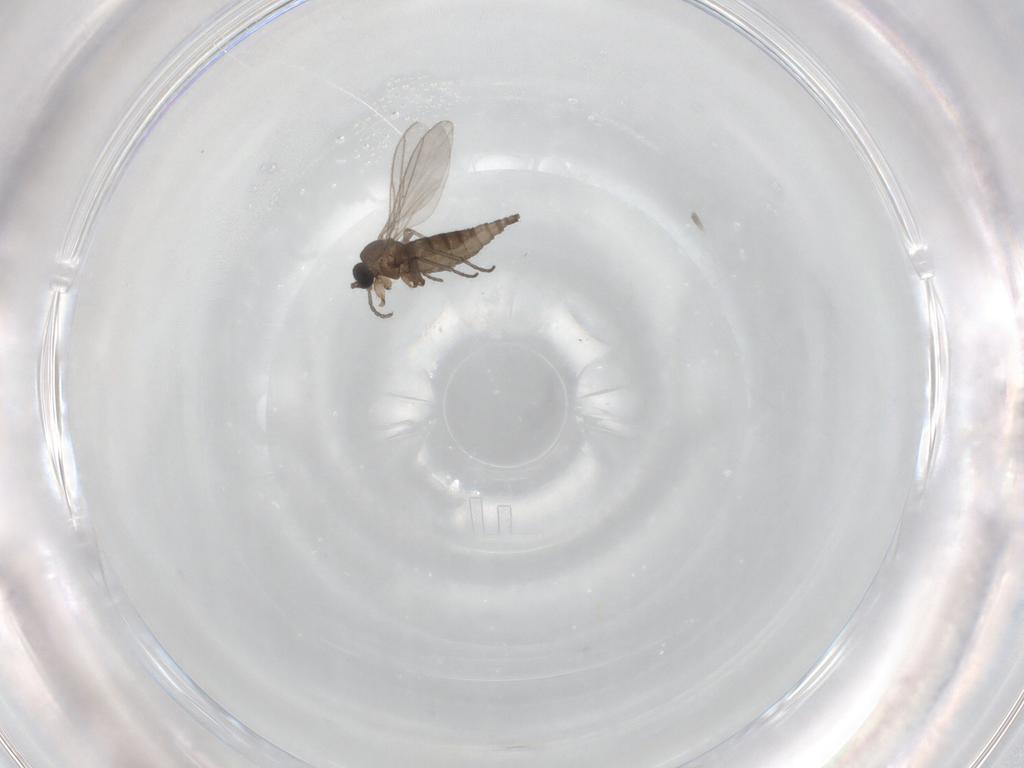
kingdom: Animalia
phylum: Arthropoda
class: Insecta
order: Diptera
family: Sciaridae
